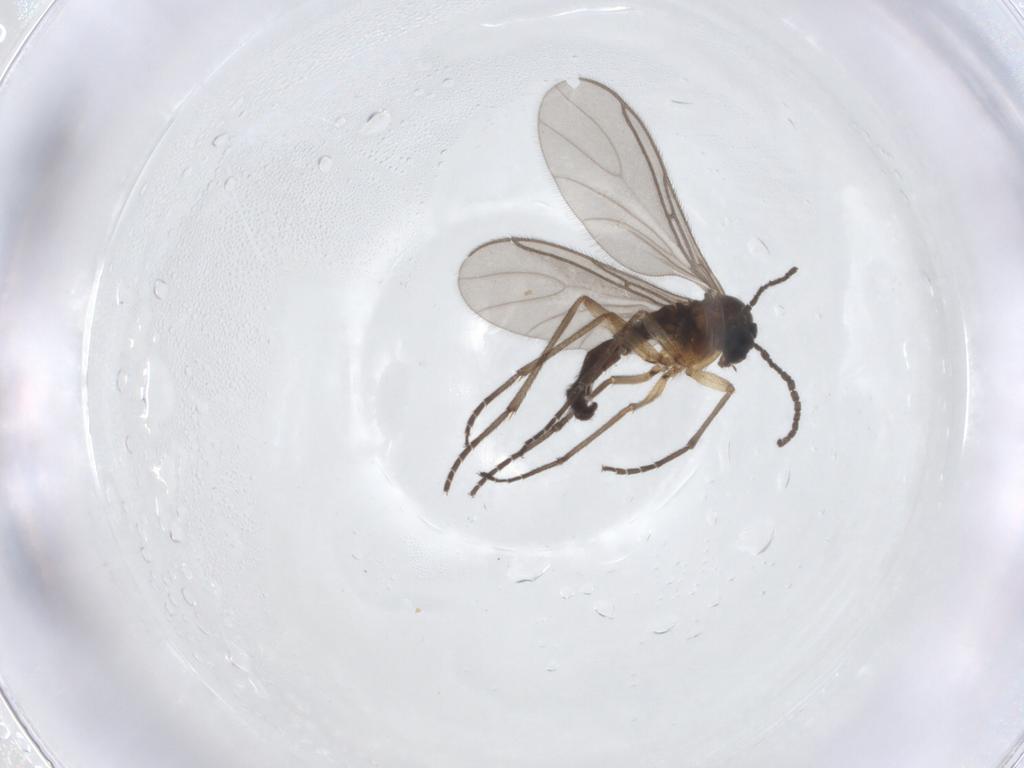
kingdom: Animalia
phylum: Arthropoda
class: Insecta
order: Diptera
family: Sciaridae
